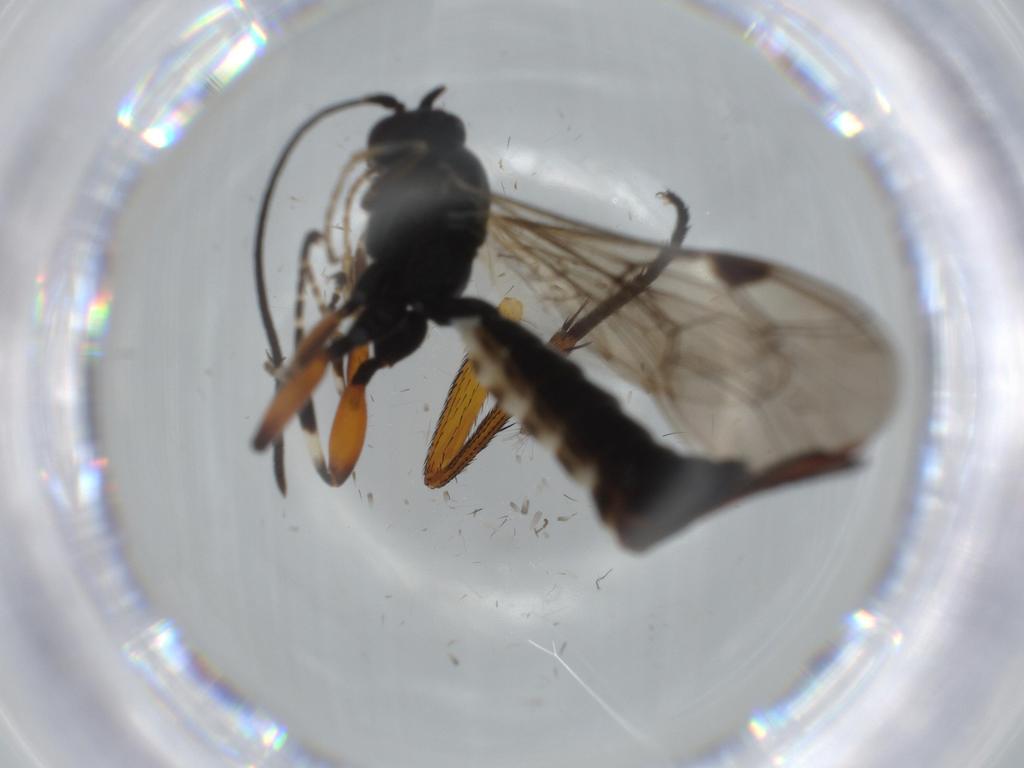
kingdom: Animalia
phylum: Arthropoda
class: Insecta
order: Hymenoptera
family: Ichneumonidae
